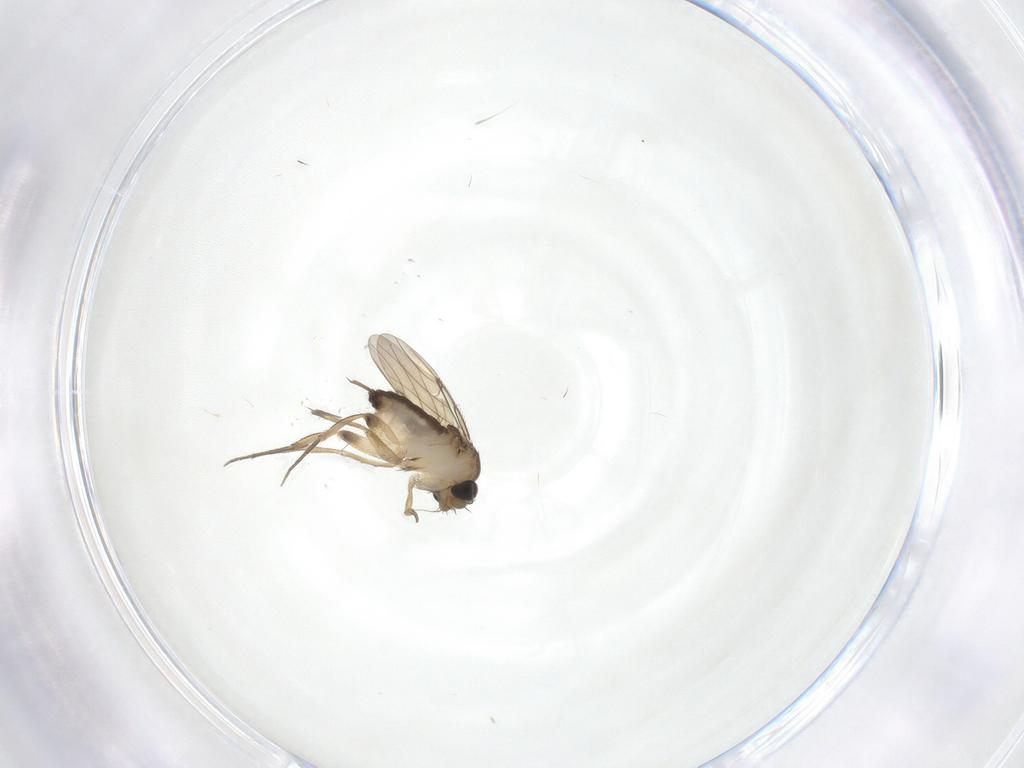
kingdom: Animalia
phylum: Arthropoda
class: Insecta
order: Diptera
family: Phoridae
